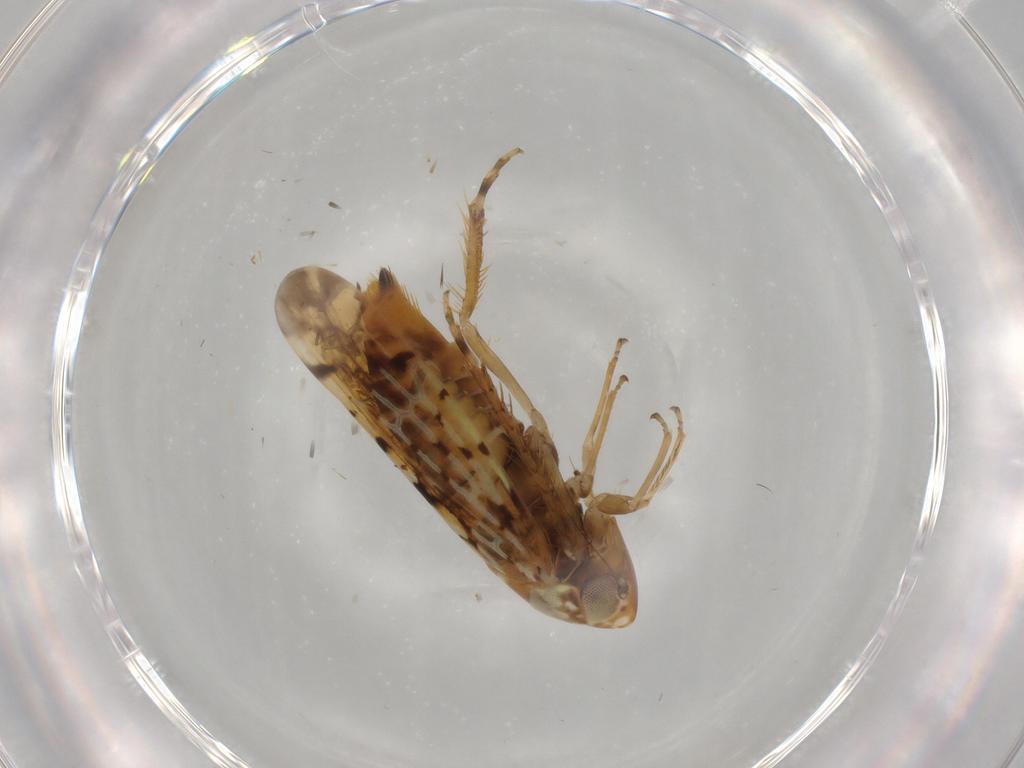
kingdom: Animalia
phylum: Arthropoda
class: Insecta
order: Hemiptera
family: Cicadellidae
